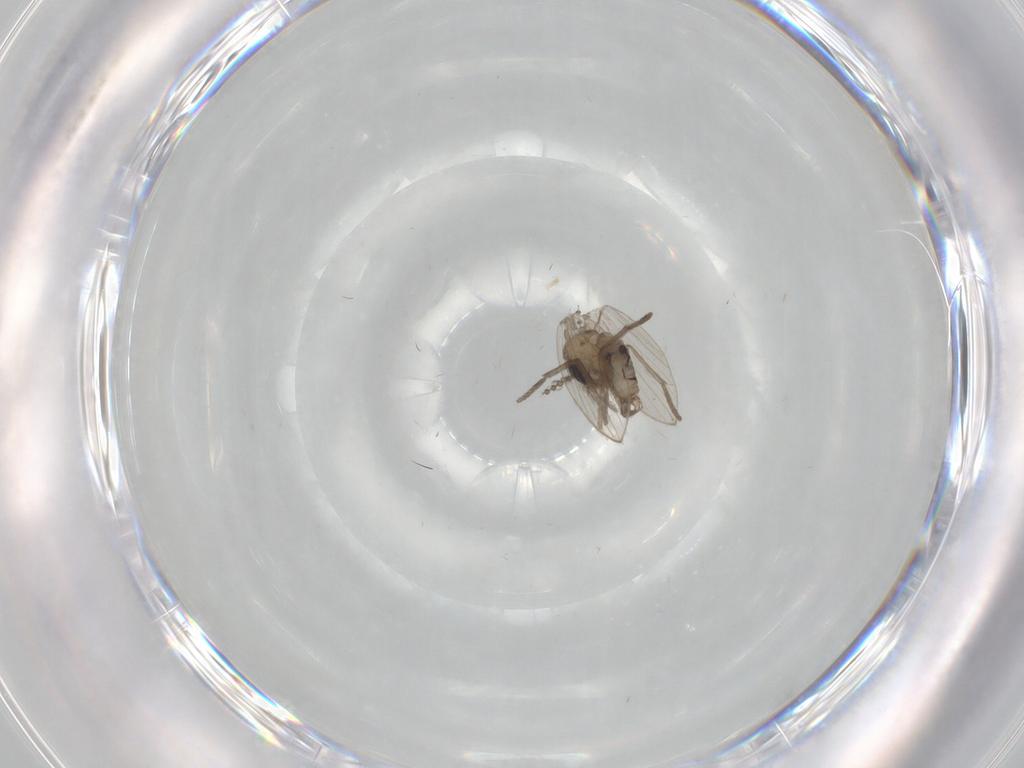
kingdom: Animalia
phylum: Arthropoda
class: Insecta
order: Diptera
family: Psychodidae
